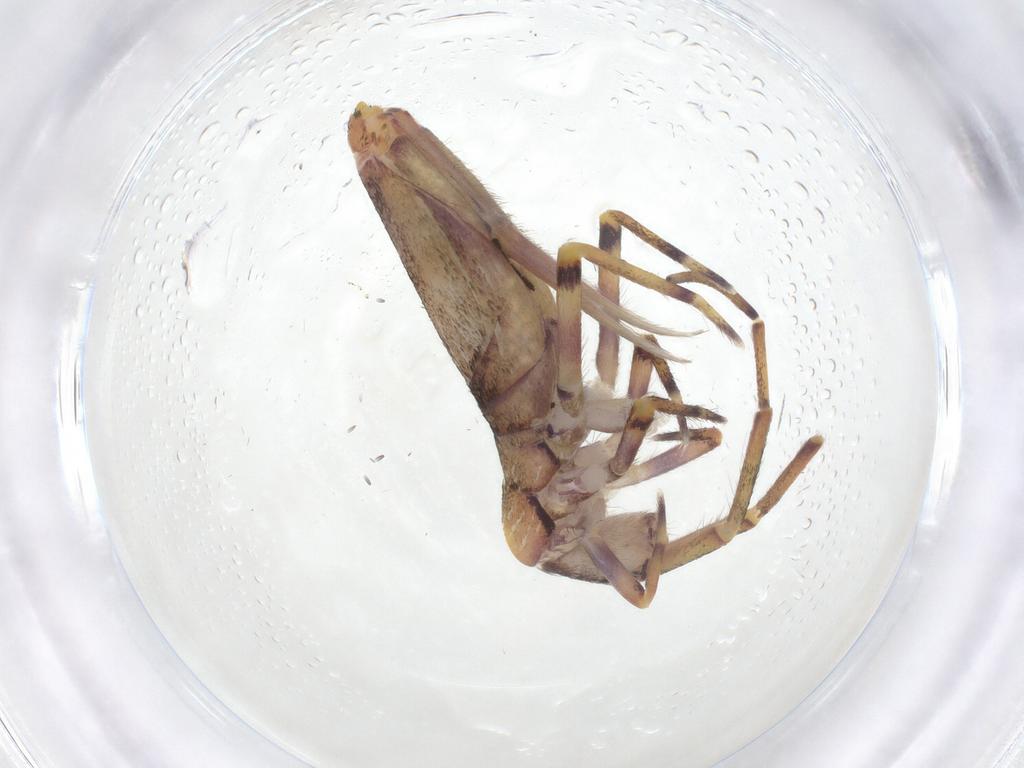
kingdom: Animalia
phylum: Arthropoda
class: Collembola
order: Entomobryomorpha
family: Entomobryidae
